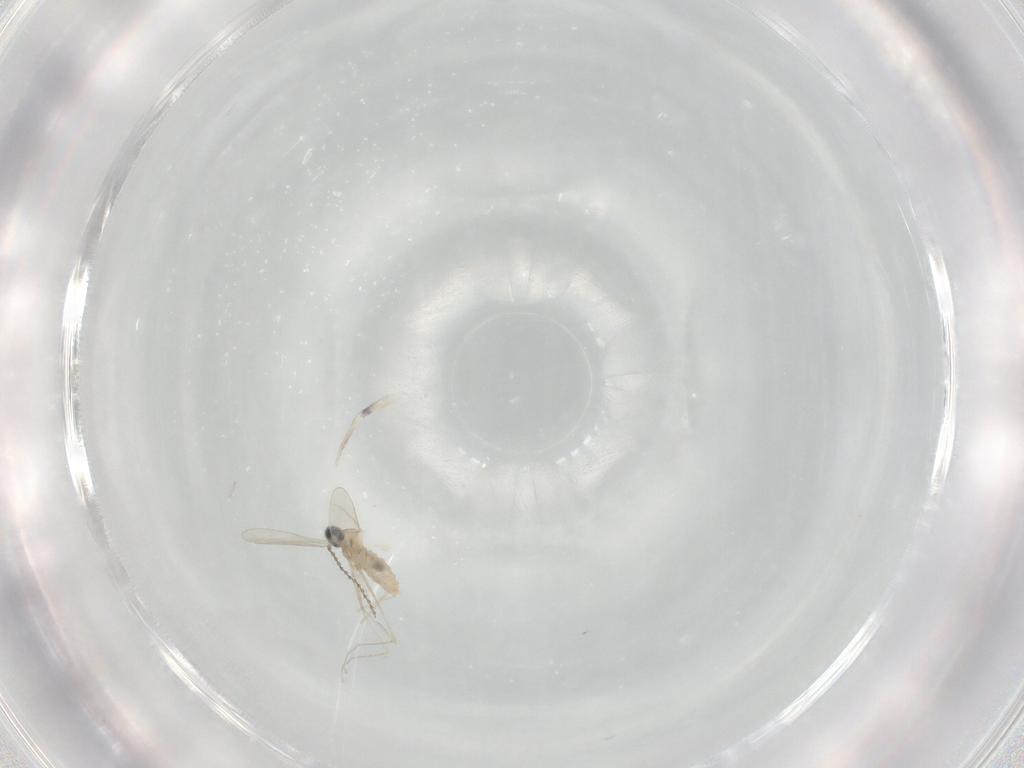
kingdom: Animalia
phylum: Arthropoda
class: Insecta
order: Diptera
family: Cecidomyiidae
